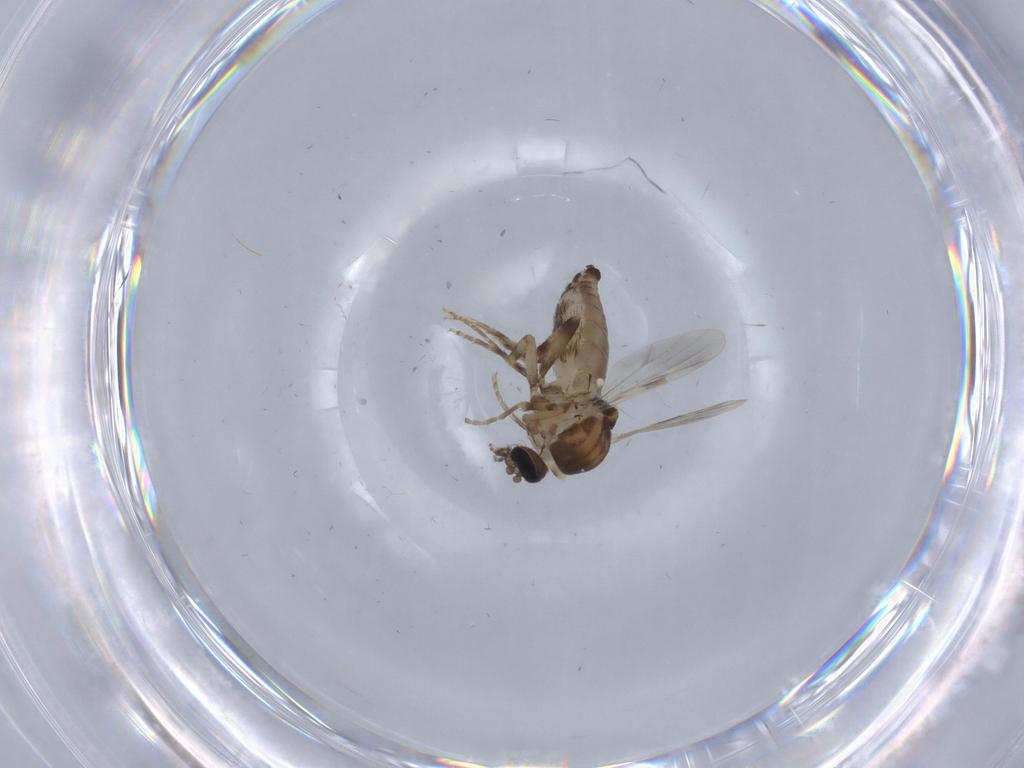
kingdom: Animalia
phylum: Arthropoda
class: Insecta
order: Diptera
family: Ceratopogonidae
